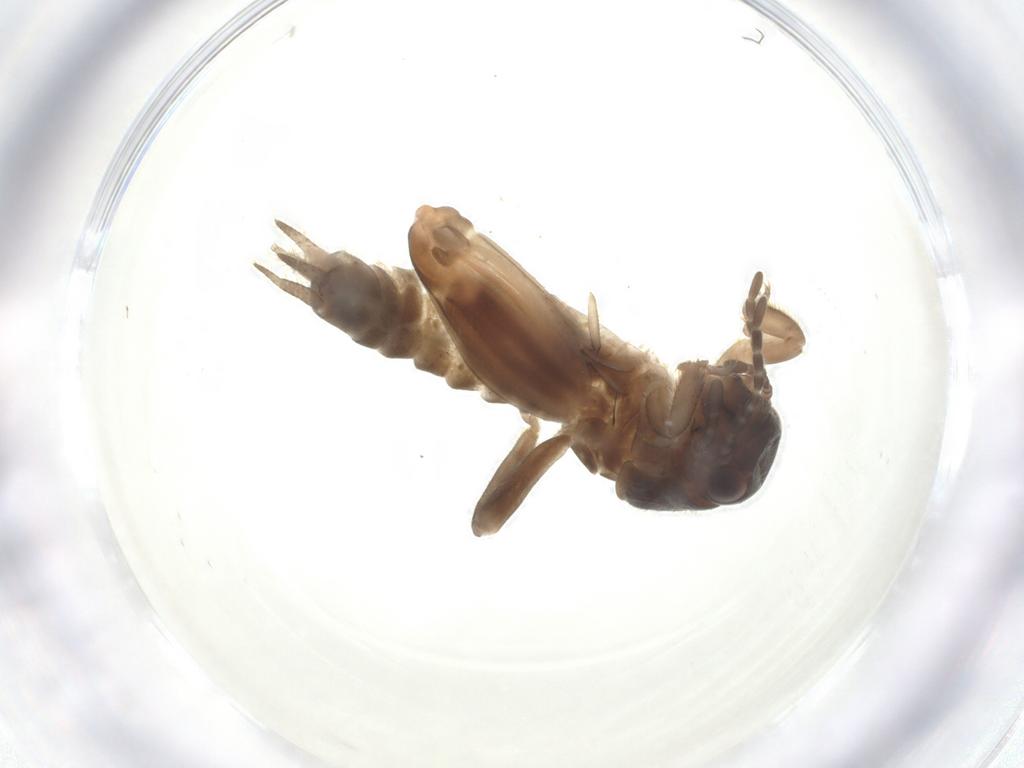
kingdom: Animalia
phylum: Arthropoda
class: Insecta
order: Orthoptera
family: Tridactylidae
